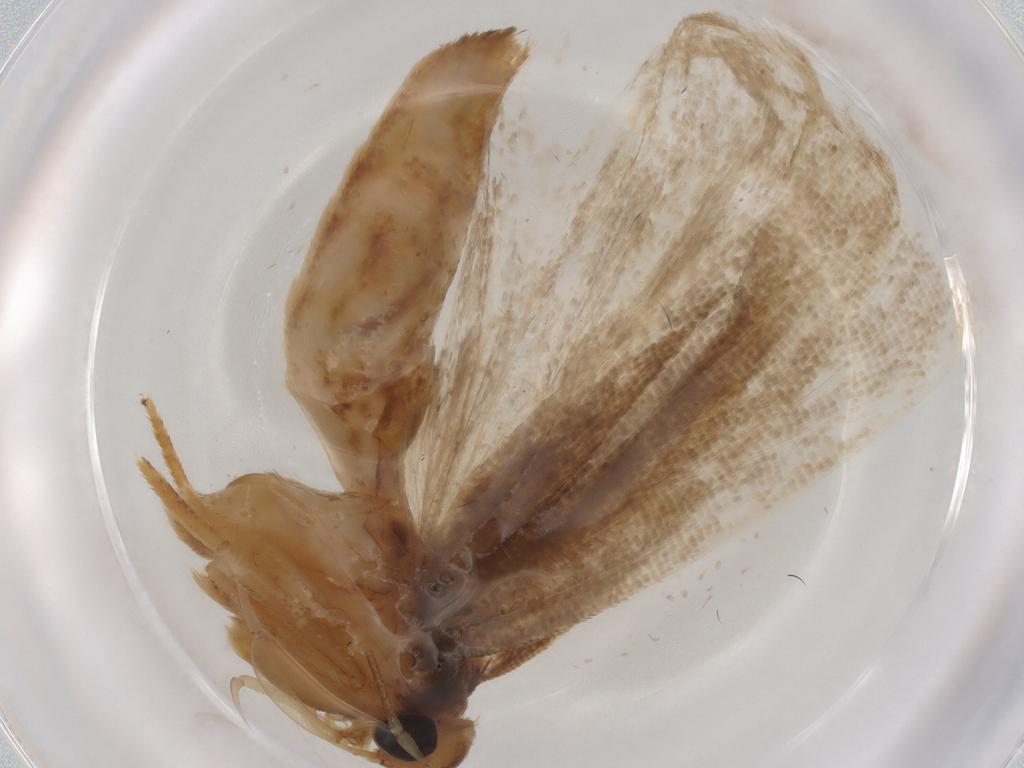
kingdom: Animalia
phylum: Arthropoda
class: Insecta
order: Lepidoptera
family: Gelechiidae
